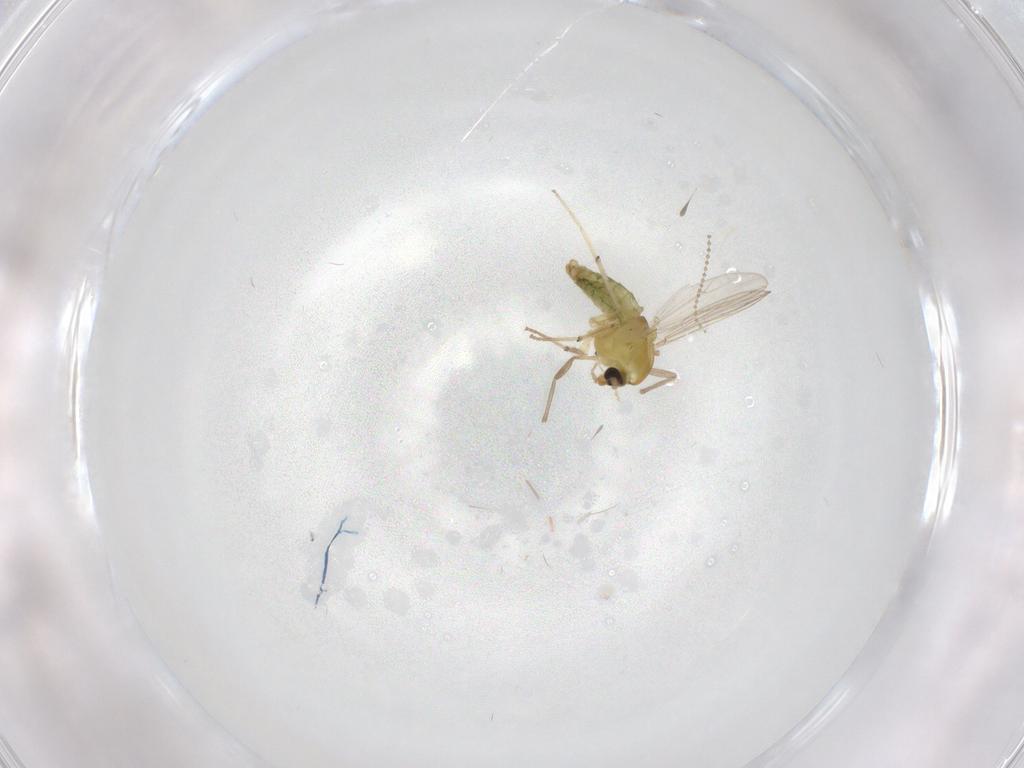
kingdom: Animalia
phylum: Arthropoda
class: Insecta
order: Diptera
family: Chironomidae
